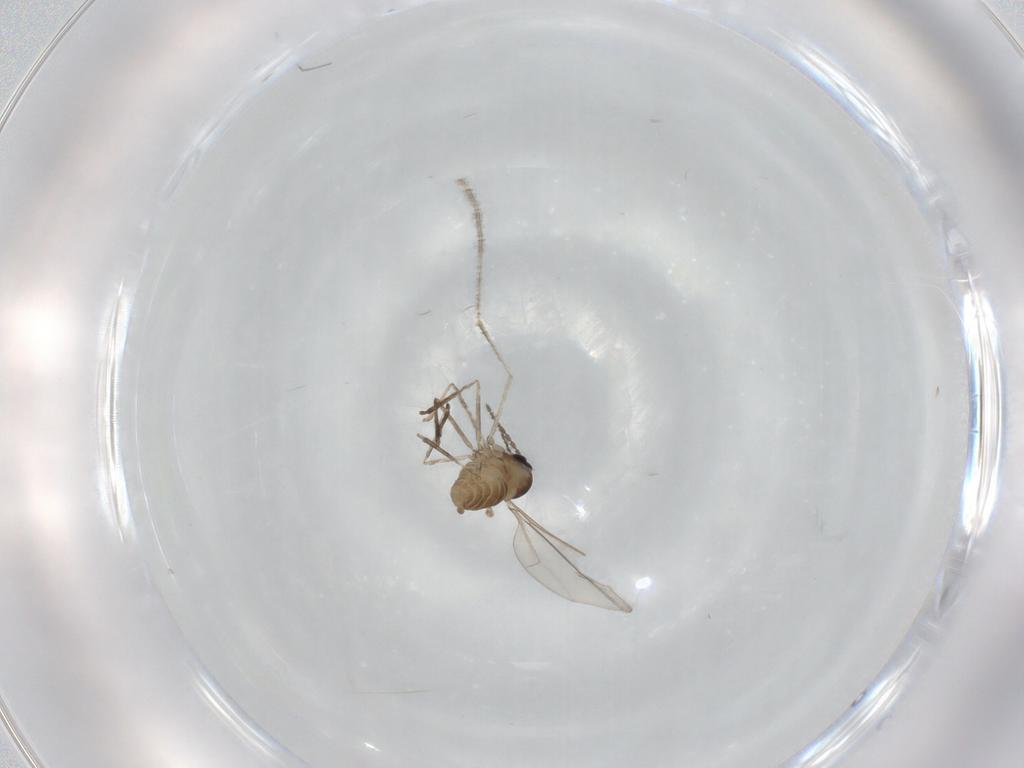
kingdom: Animalia
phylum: Arthropoda
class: Insecta
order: Diptera
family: Cecidomyiidae
